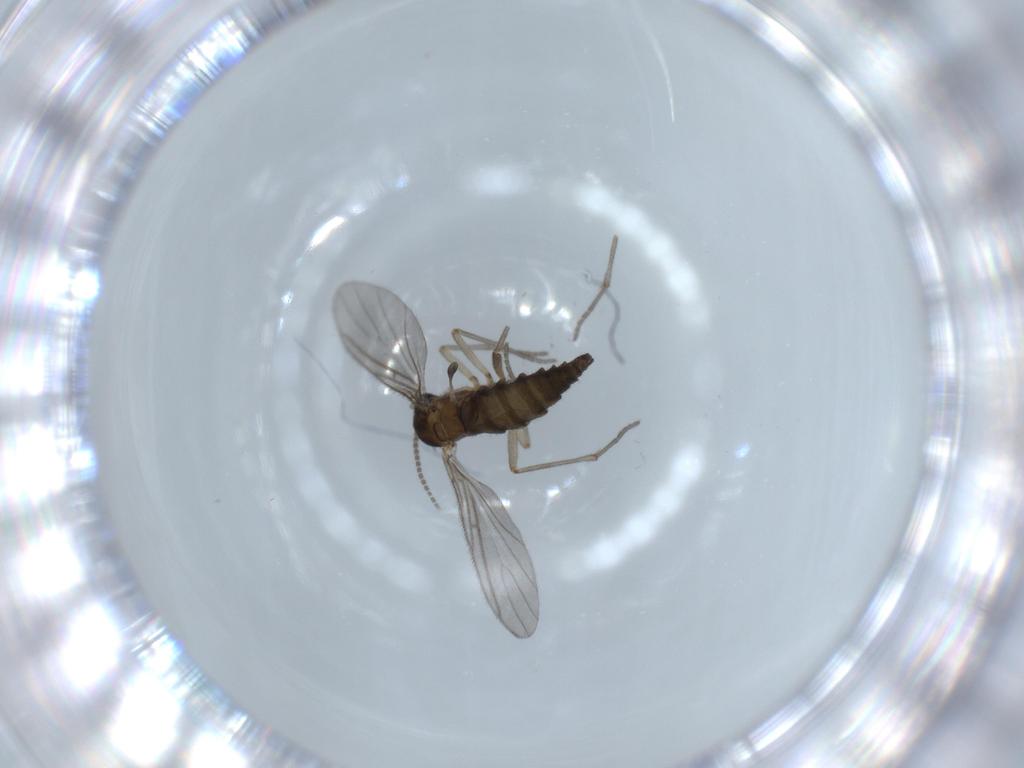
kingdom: Animalia
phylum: Arthropoda
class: Insecta
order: Diptera
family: Sciaridae
